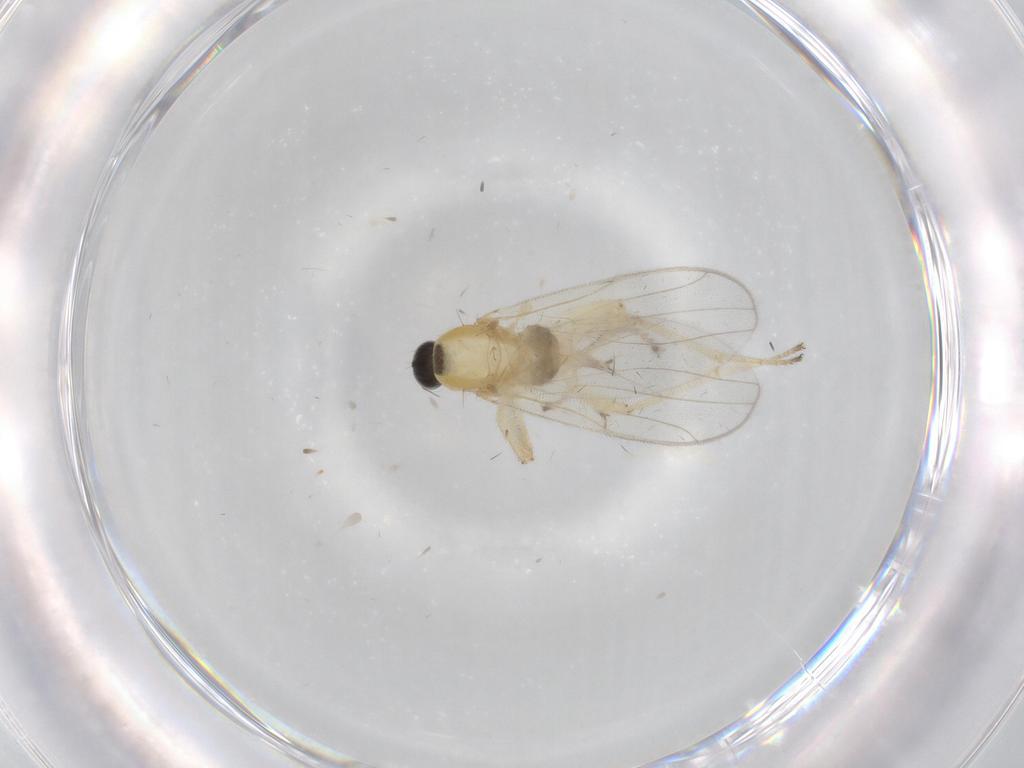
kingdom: Animalia
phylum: Arthropoda
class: Insecta
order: Diptera
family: Hybotidae
